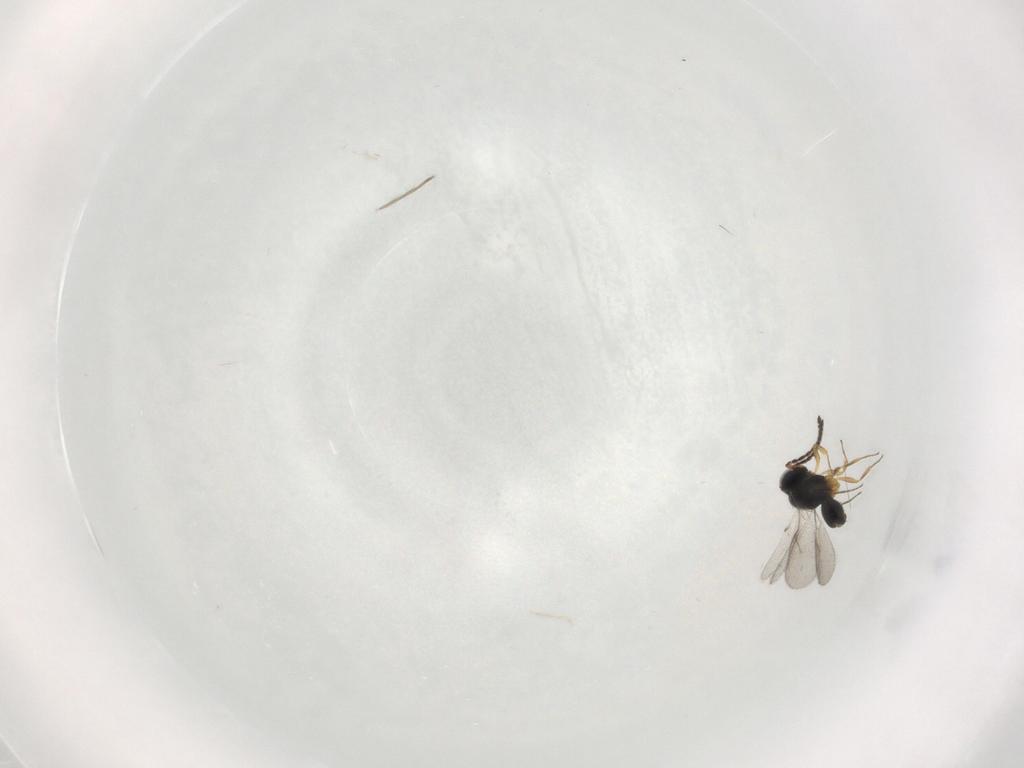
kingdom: Animalia
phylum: Arthropoda
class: Insecta
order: Hymenoptera
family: Scelionidae
